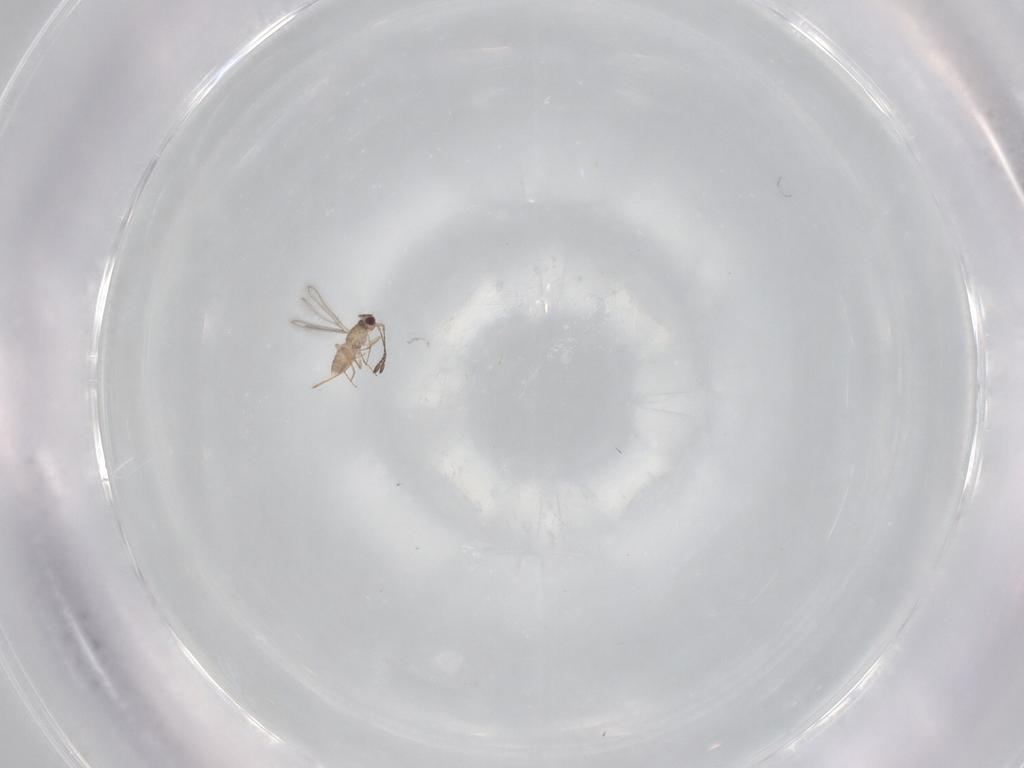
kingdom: Animalia
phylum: Arthropoda
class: Insecta
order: Hymenoptera
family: Mymaridae
